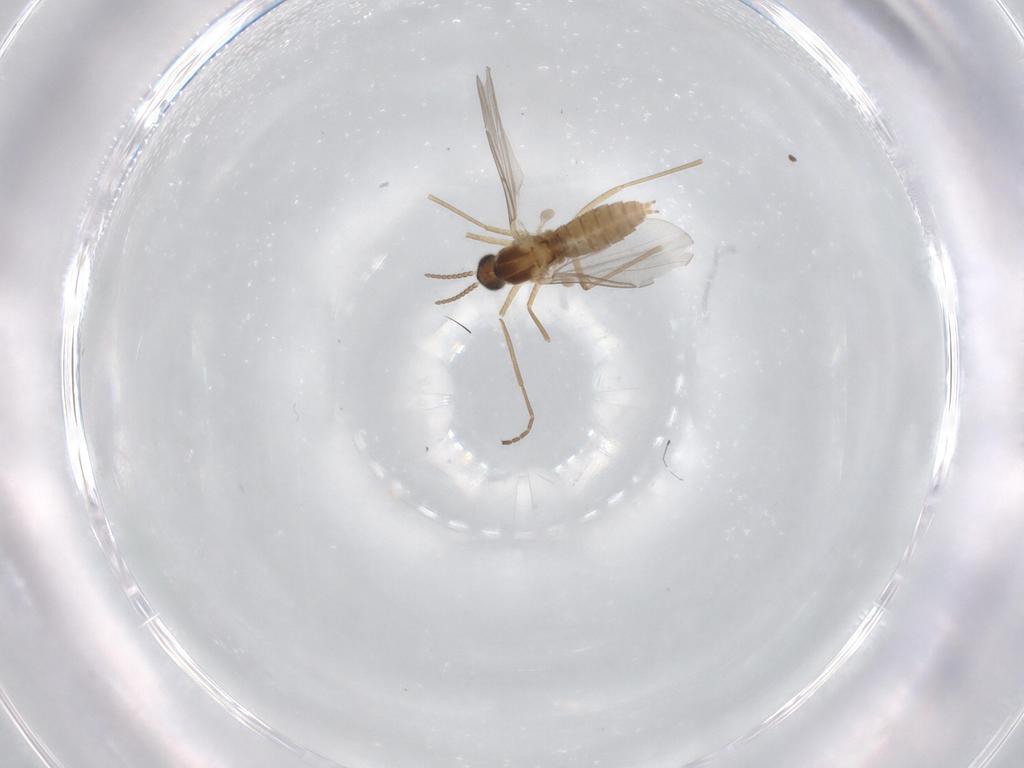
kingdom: Animalia
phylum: Arthropoda
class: Insecta
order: Diptera
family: Cecidomyiidae
